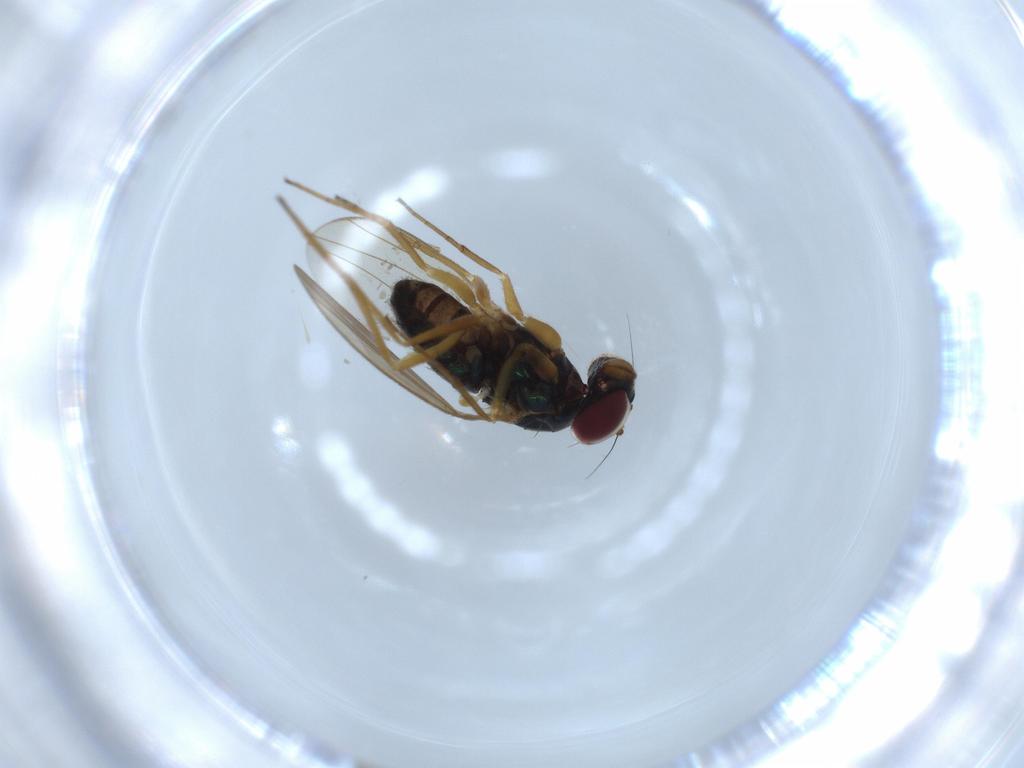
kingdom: Animalia
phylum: Arthropoda
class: Insecta
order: Diptera
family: Dolichopodidae
